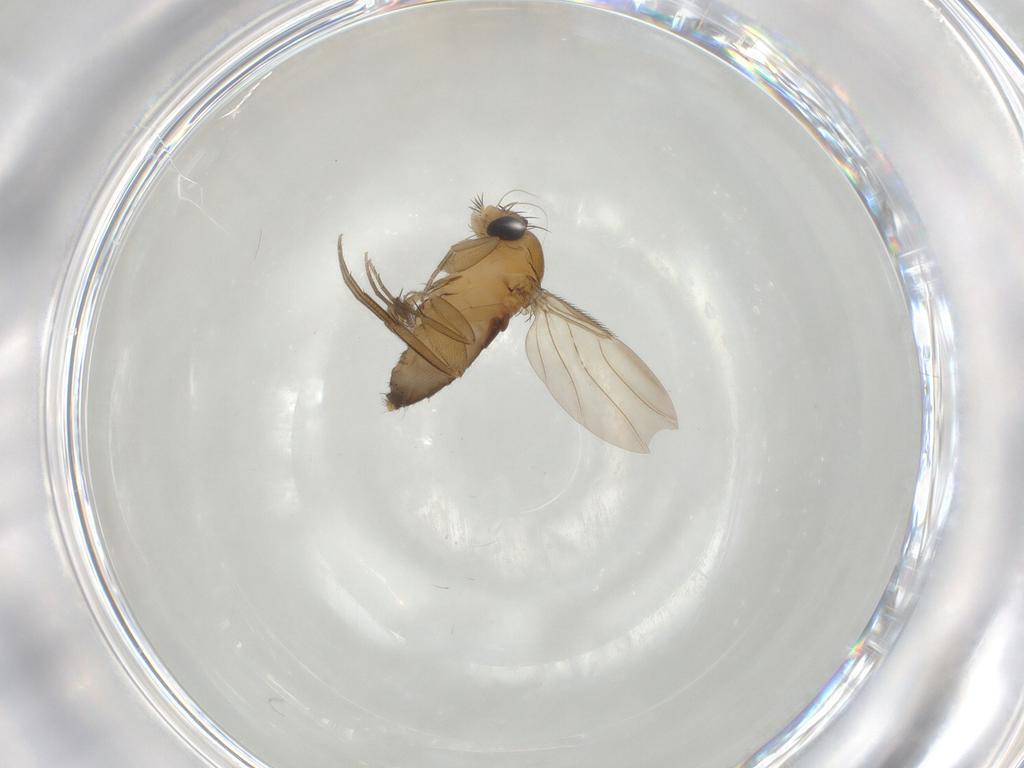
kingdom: Animalia
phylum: Arthropoda
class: Insecta
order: Diptera
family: Phoridae
